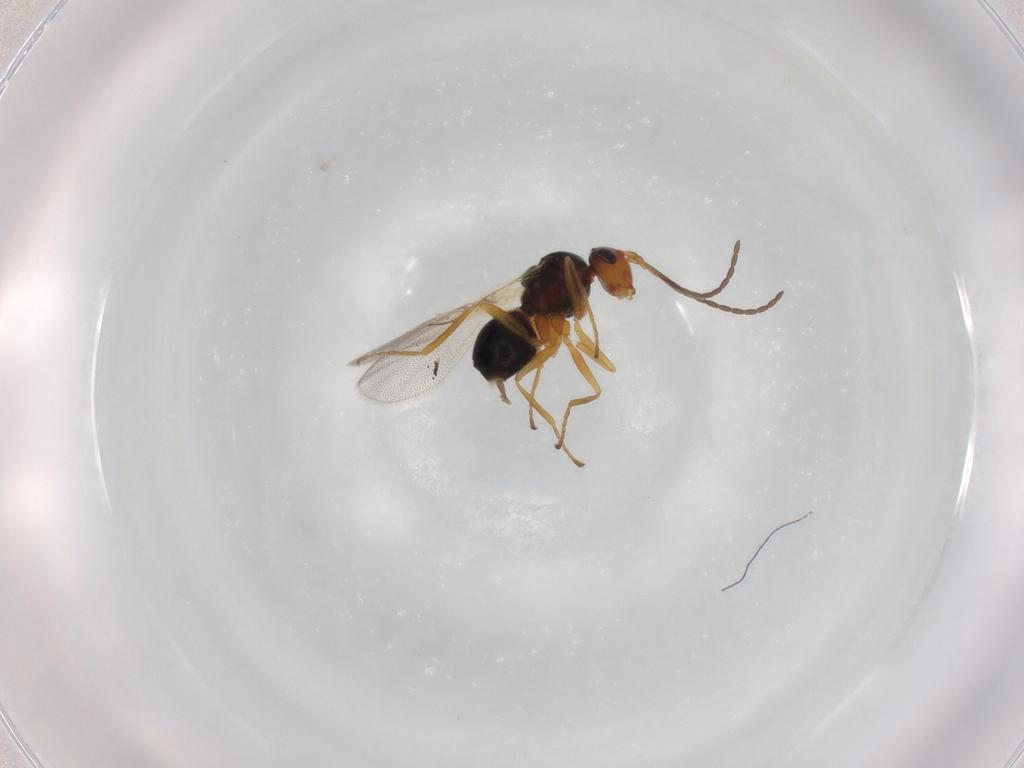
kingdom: Animalia
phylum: Arthropoda
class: Insecta
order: Hymenoptera
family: Figitidae
